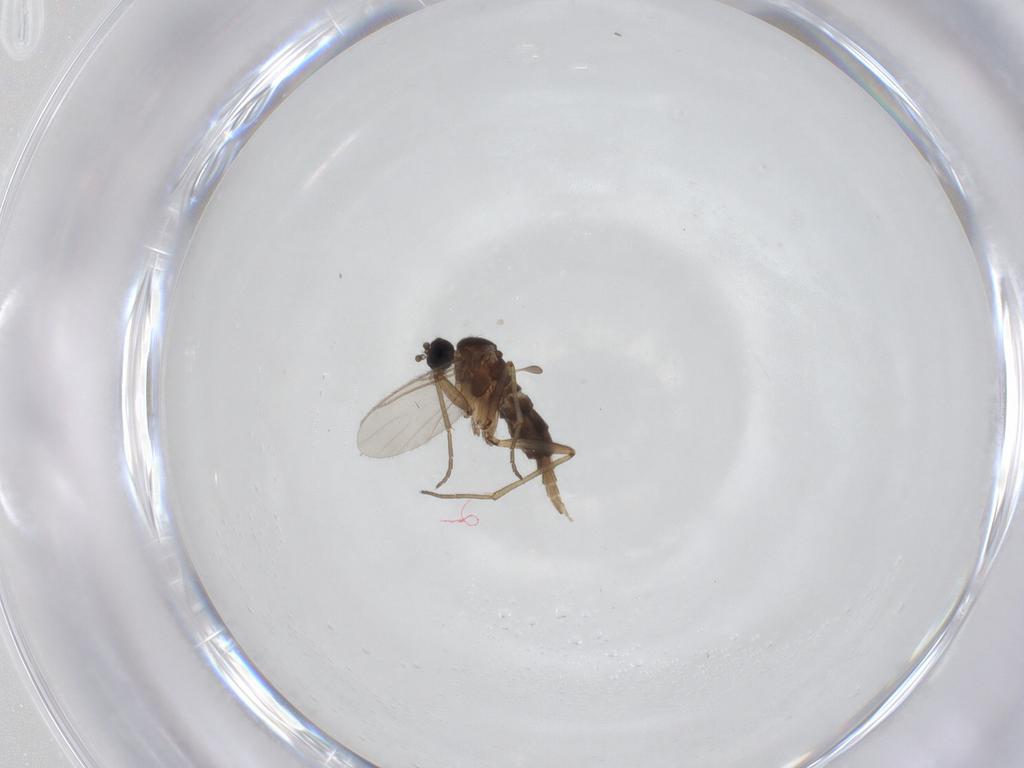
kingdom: Animalia
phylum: Arthropoda
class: Insecta
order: Diptera
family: Sciaridae
